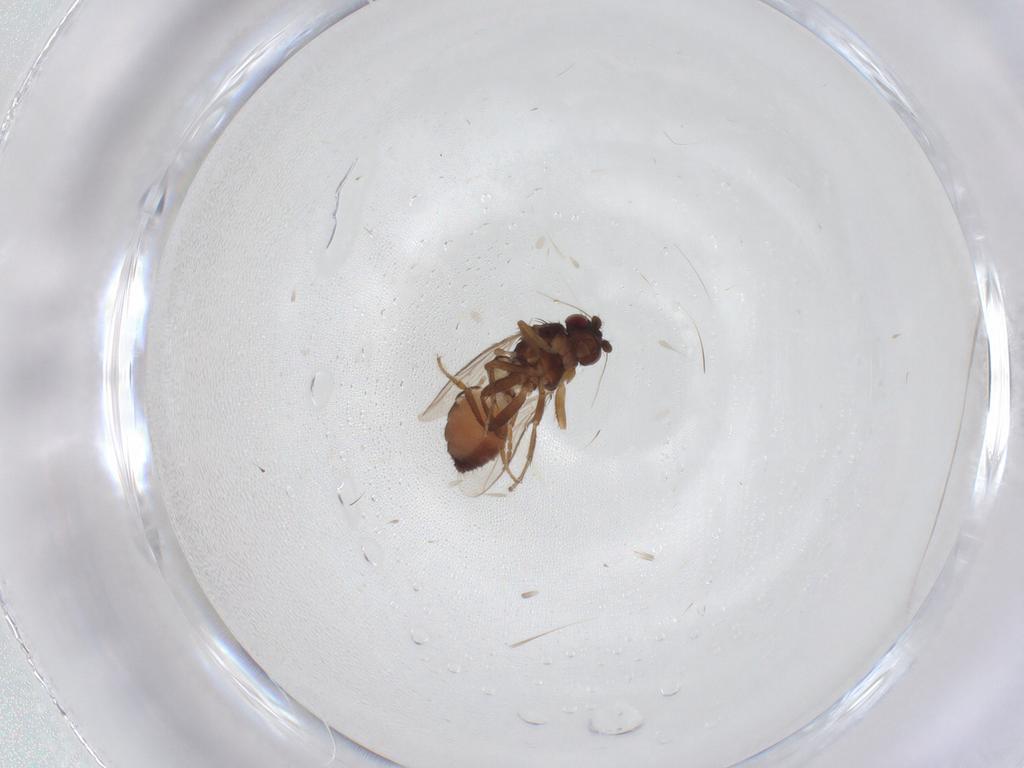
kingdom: Animalia
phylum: Arthropoda
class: Insecta
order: Diptera
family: Sphaeroceridae
